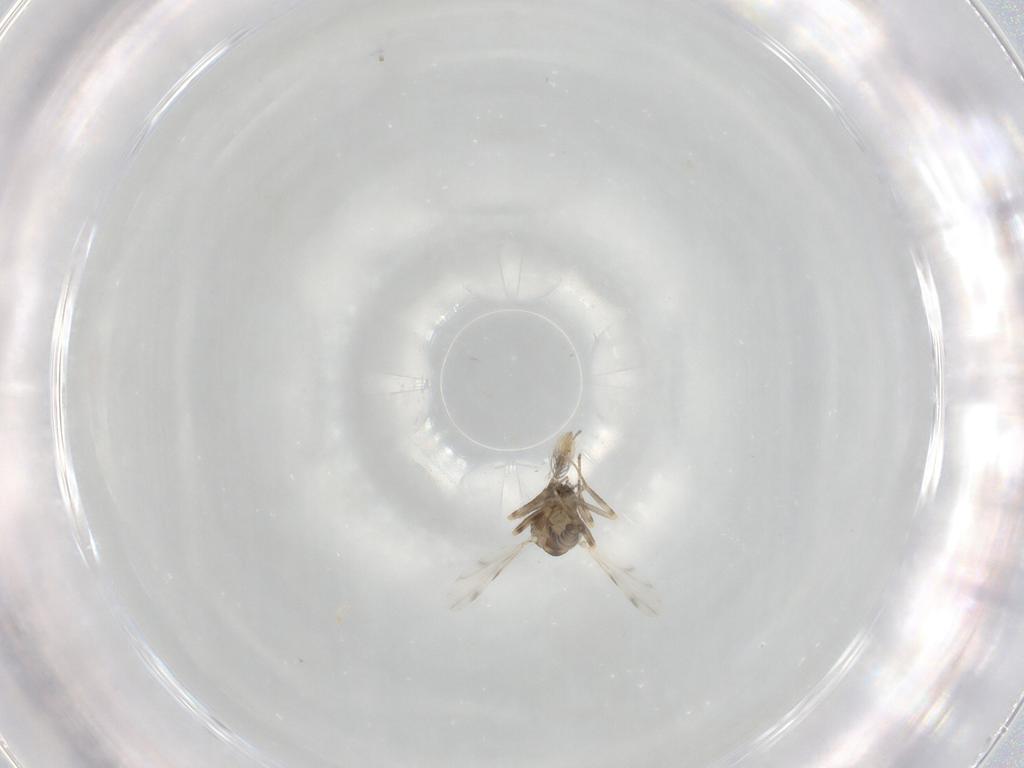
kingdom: Animalia
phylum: Arthropoda
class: Insecta
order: Diptera
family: Ceratopogonidae
